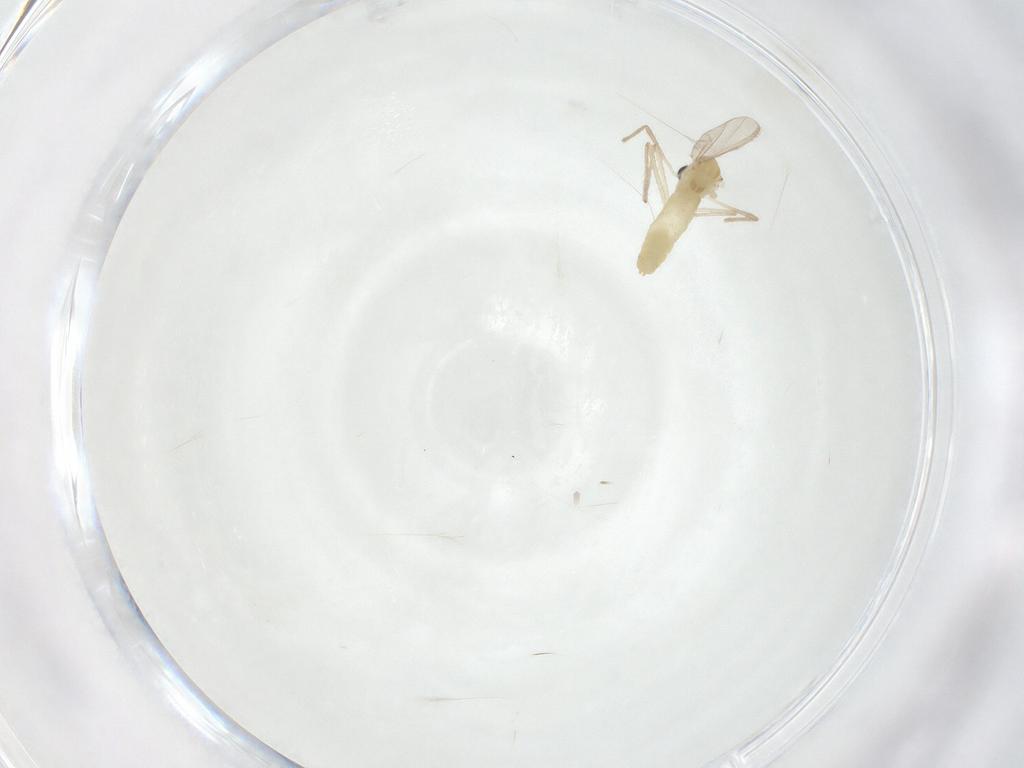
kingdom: Animalia
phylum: Arthropoda
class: Insecta
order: Diptera
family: Chironomidae
